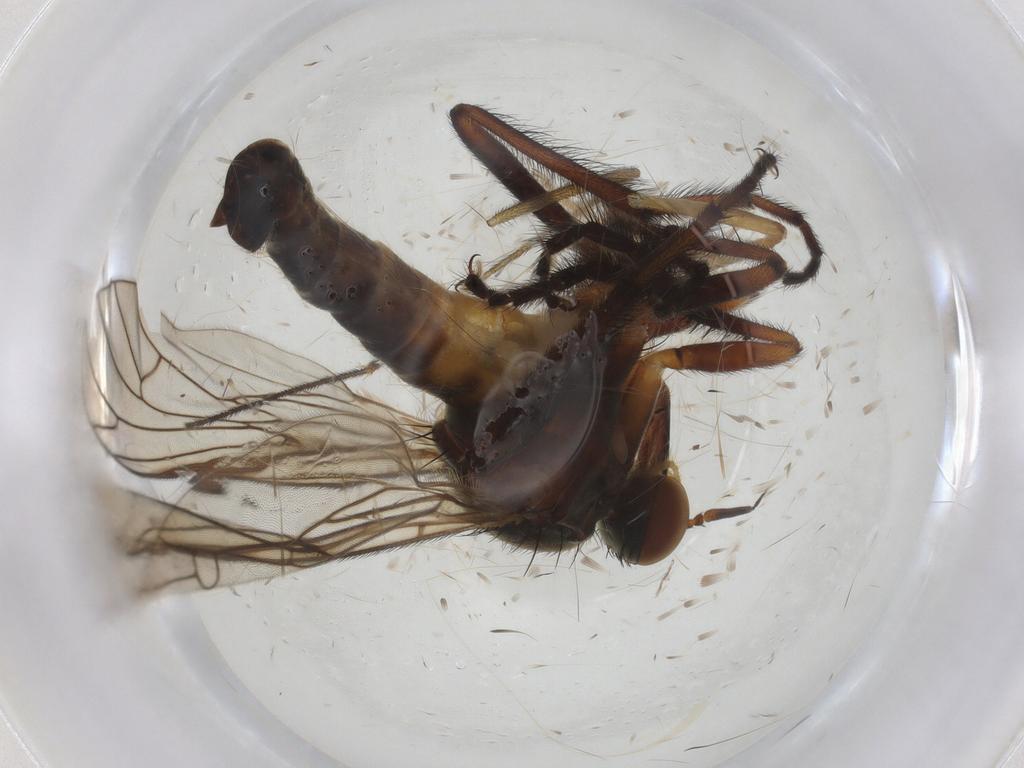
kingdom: Animalia
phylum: Arthropoda
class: Insecta
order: Diptera
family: Empididae
